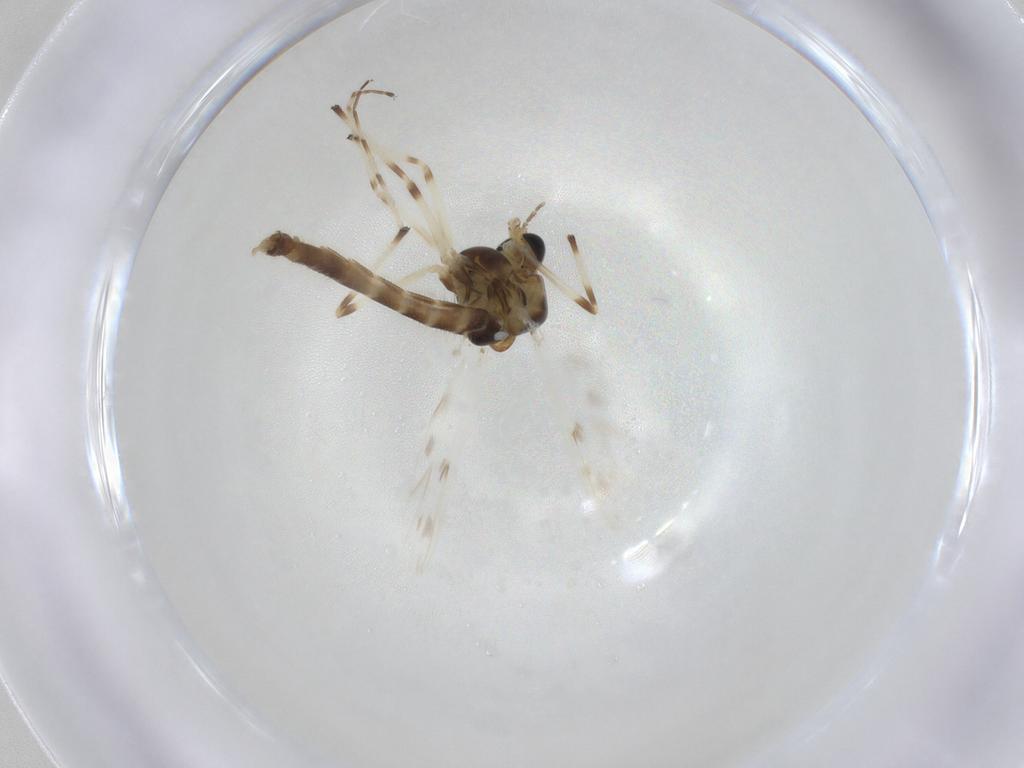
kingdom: Animalia
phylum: Arthropoda
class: Insecta
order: Diptera
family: Chironomidae
